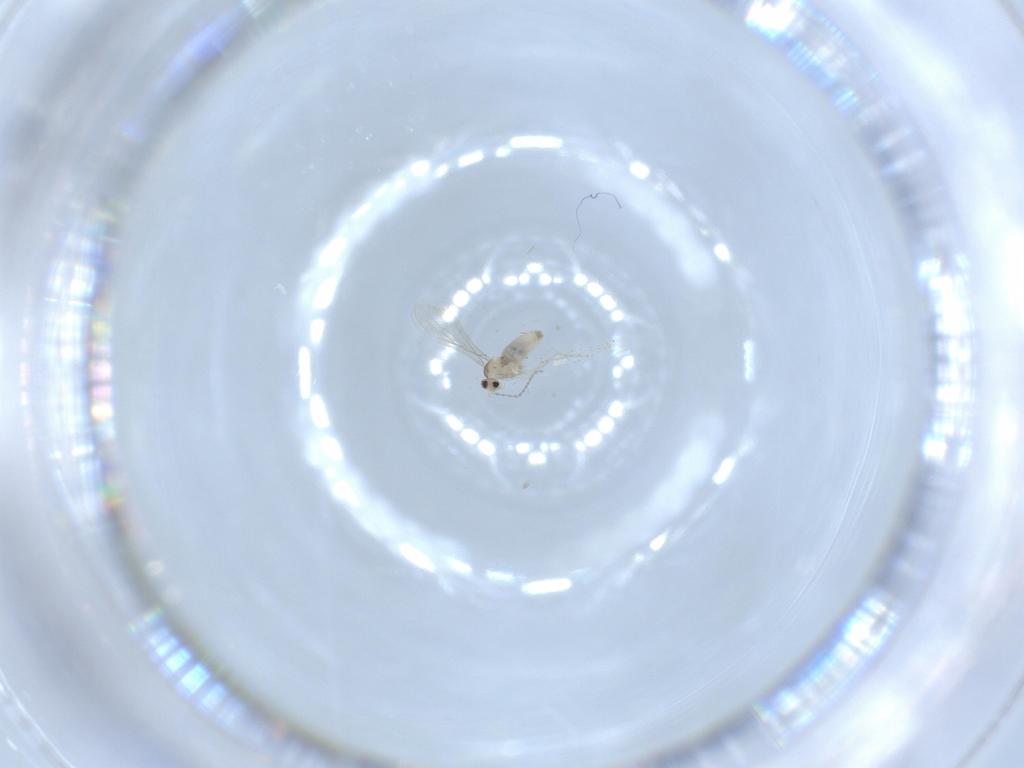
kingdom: Animalia
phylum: Arthropoda
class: Insecta
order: Diptera
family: Cecidomyiidae
